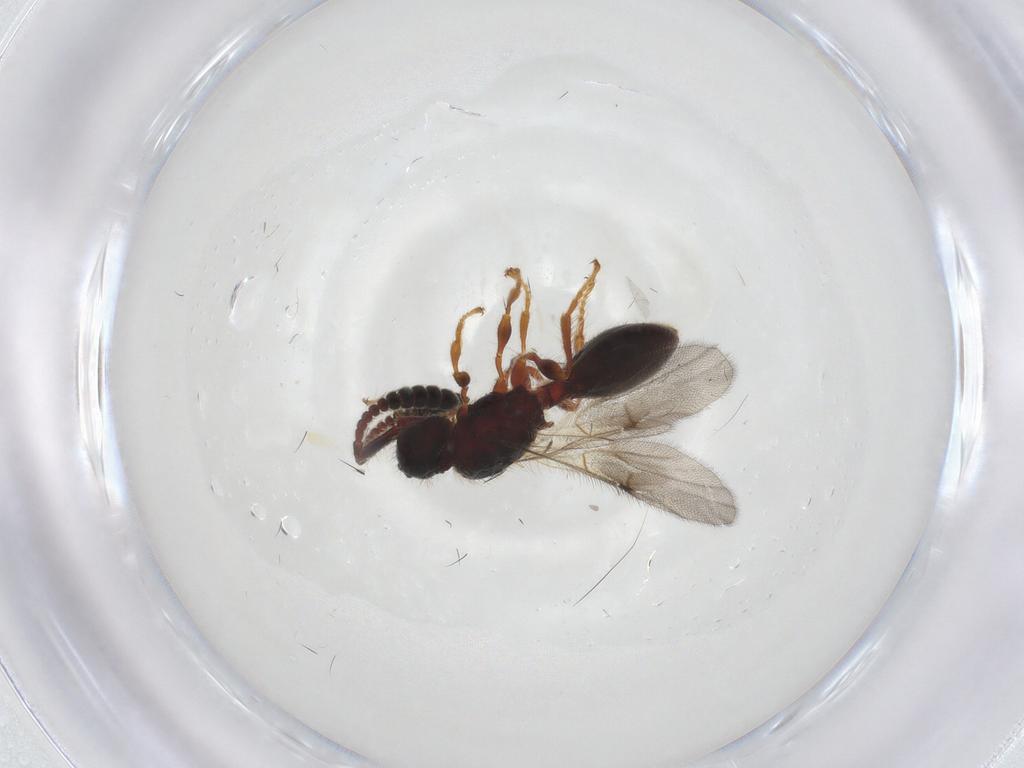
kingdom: Animalia
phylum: Arthropoda
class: Insecta
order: Hymenoptera
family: Diapriidae
